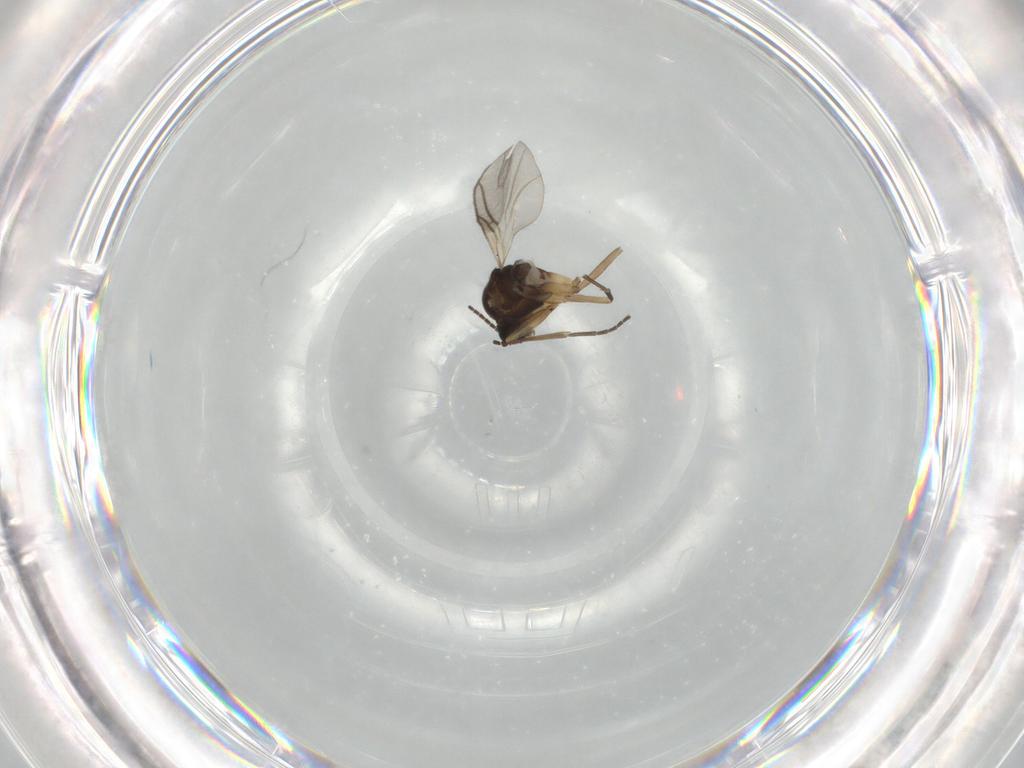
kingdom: Animalia
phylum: Arthropoda
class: Insecta
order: Diptera
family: Sciaridae
